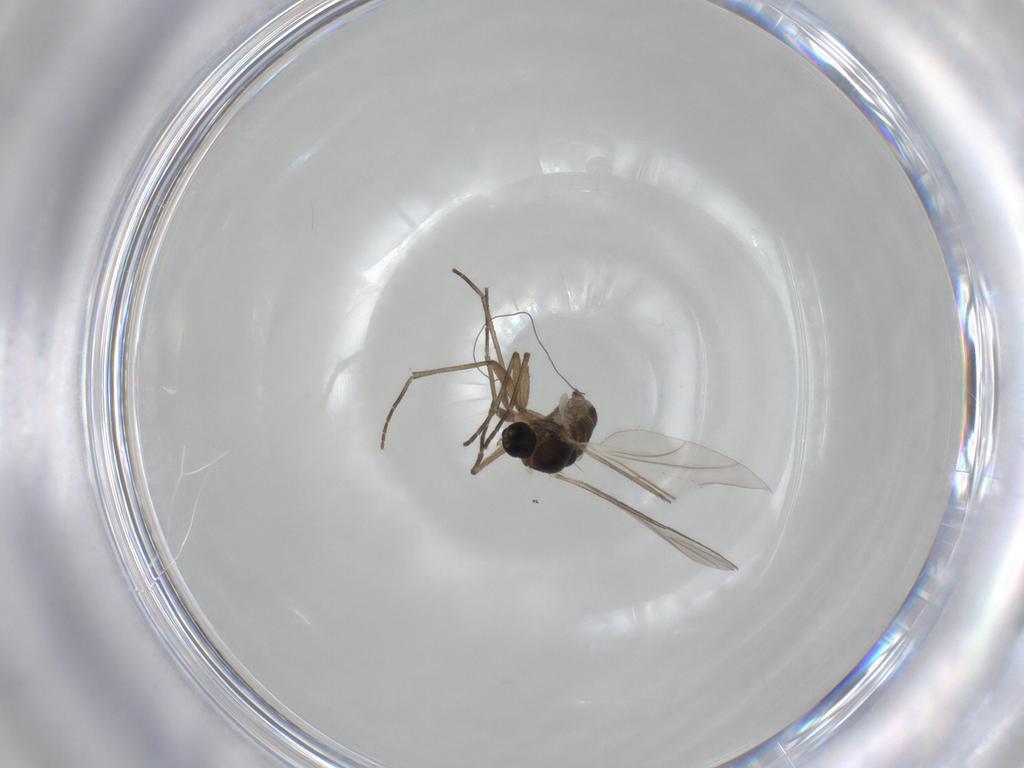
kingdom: Animalia
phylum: Arthropoda
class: Insecta
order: Diptera
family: Ceratopogonidae
